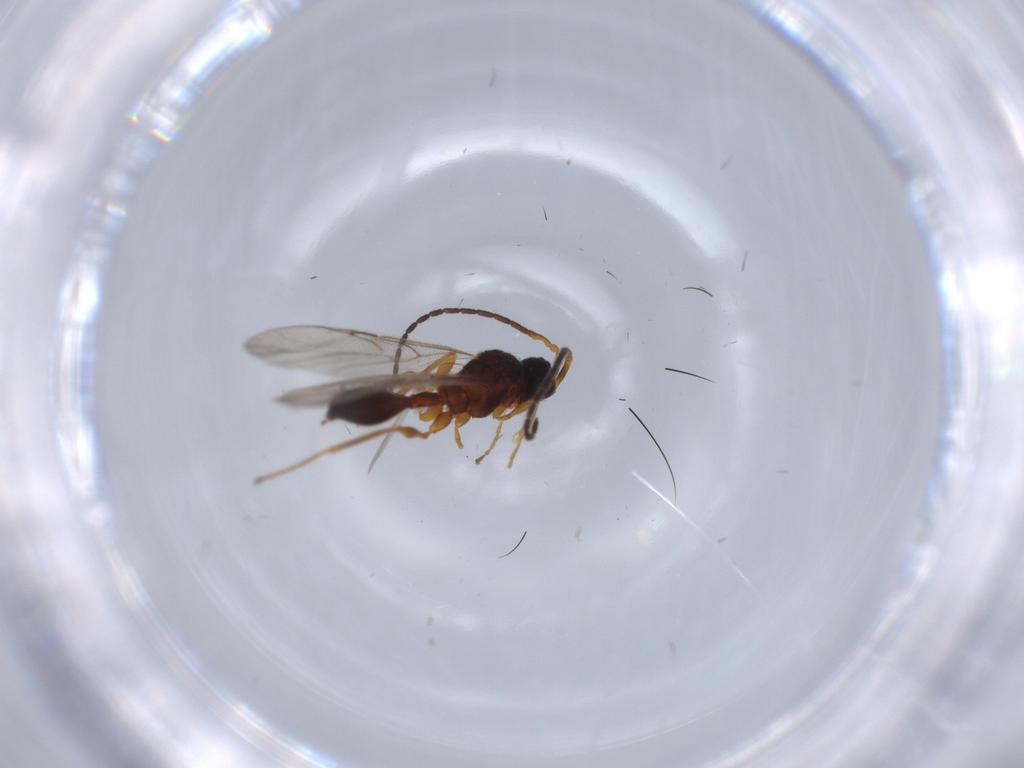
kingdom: Animalia
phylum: Arthropoda
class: Insecta
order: Hymenoptera
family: Diapriidae
